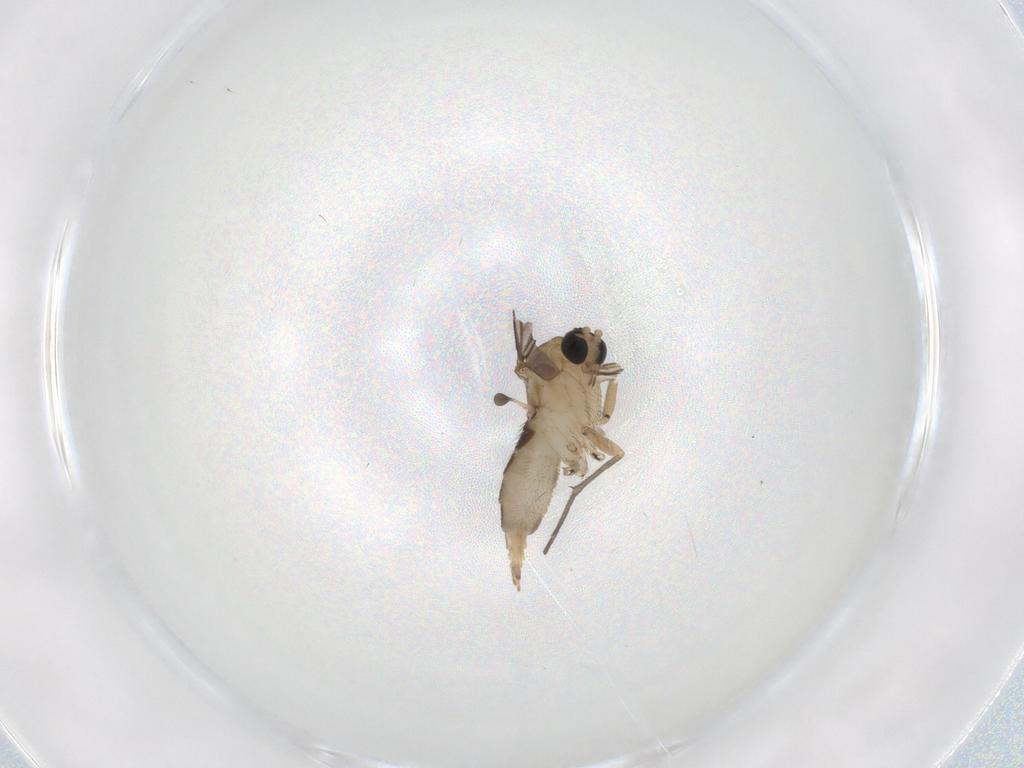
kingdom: Animalia
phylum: Arthropoda
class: Insecta
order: Diptera
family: Sciaridae
